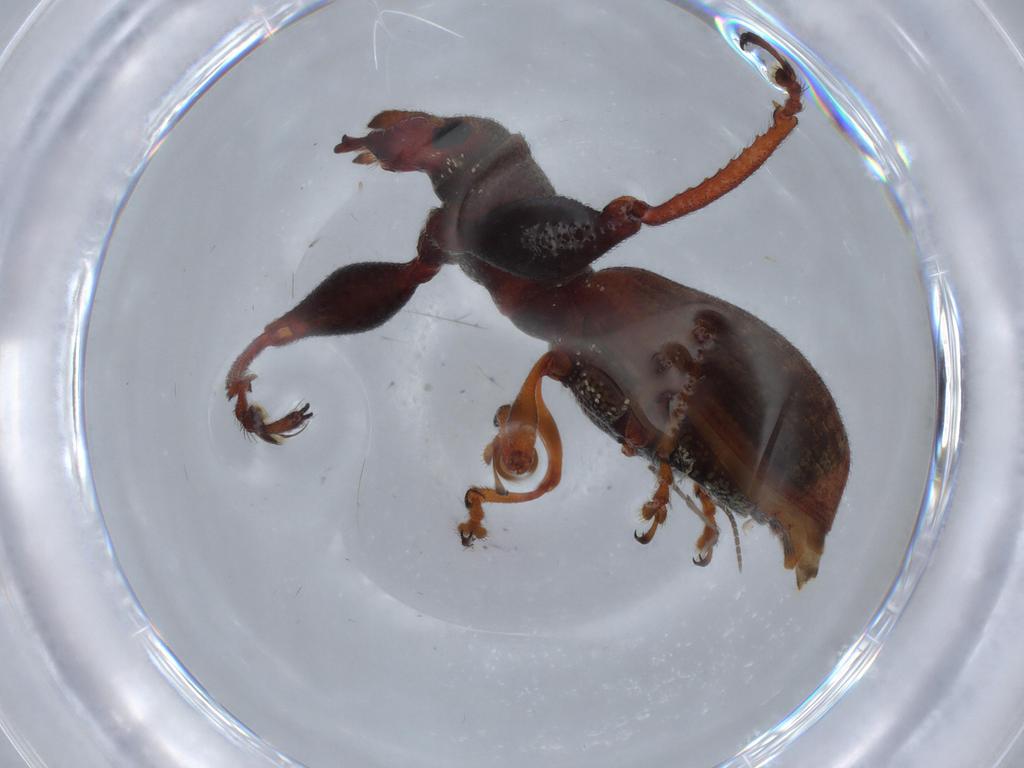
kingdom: Animalia
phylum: Arthropoda
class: Insecta
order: Coleoptera
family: Curculionidae
